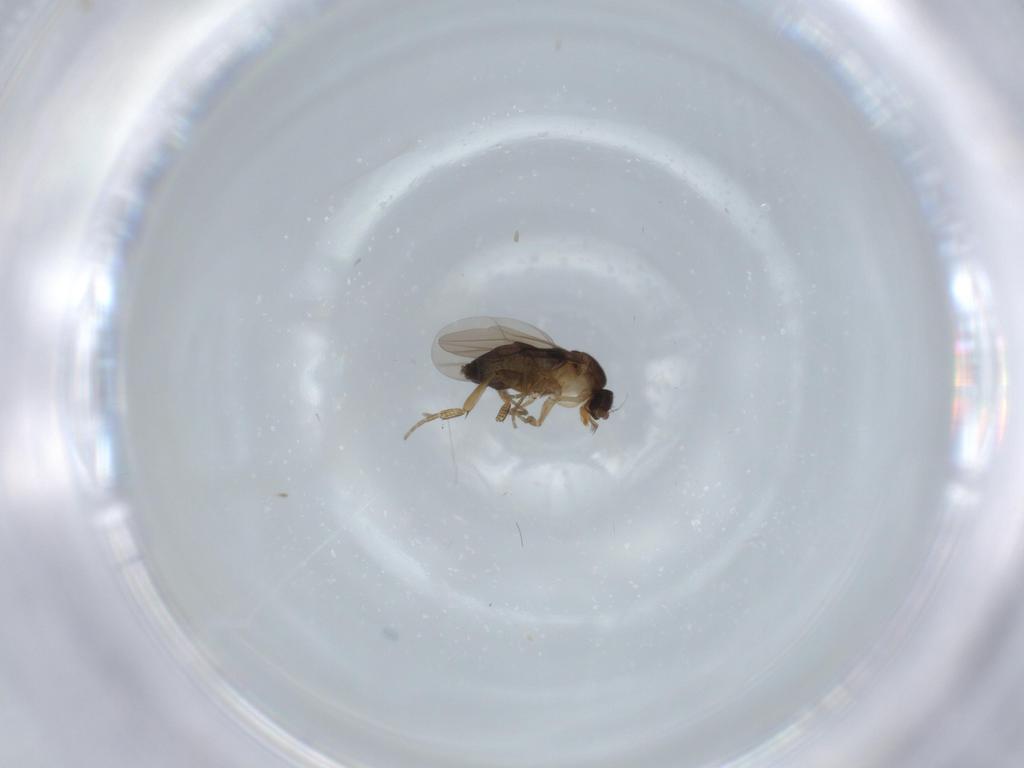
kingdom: Animalia
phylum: Arthropoda
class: Insecta
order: Diptera
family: Phoridae
